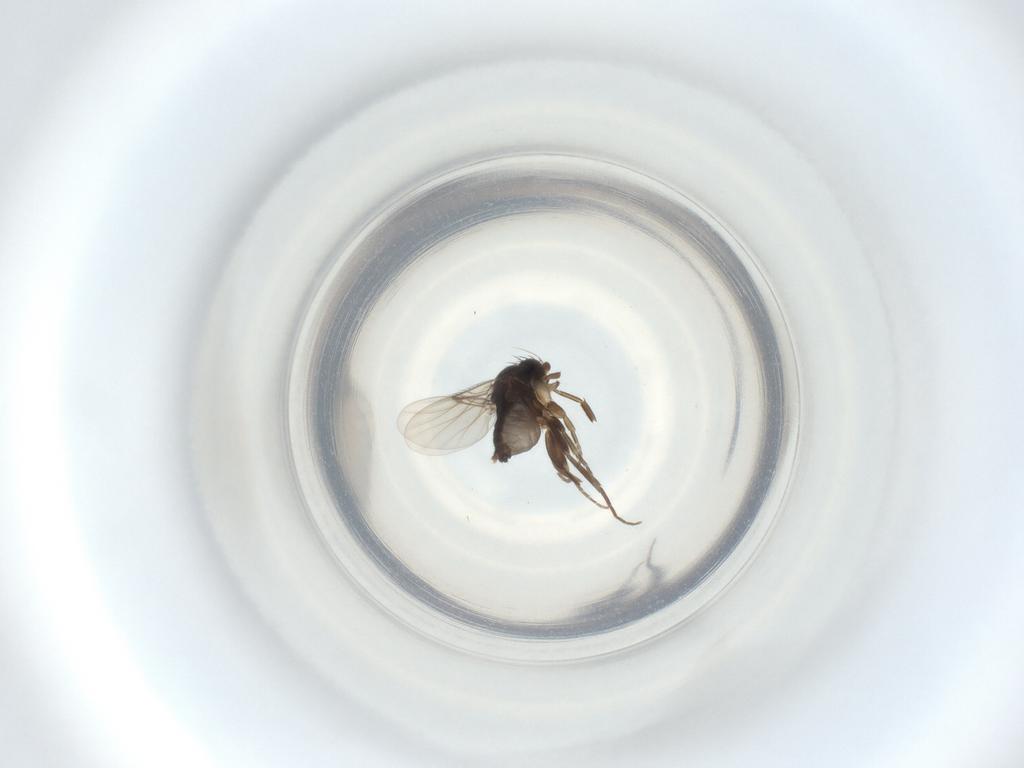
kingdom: Animalia
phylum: Arthropoda
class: Insecta
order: Diptera
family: Phoridae
